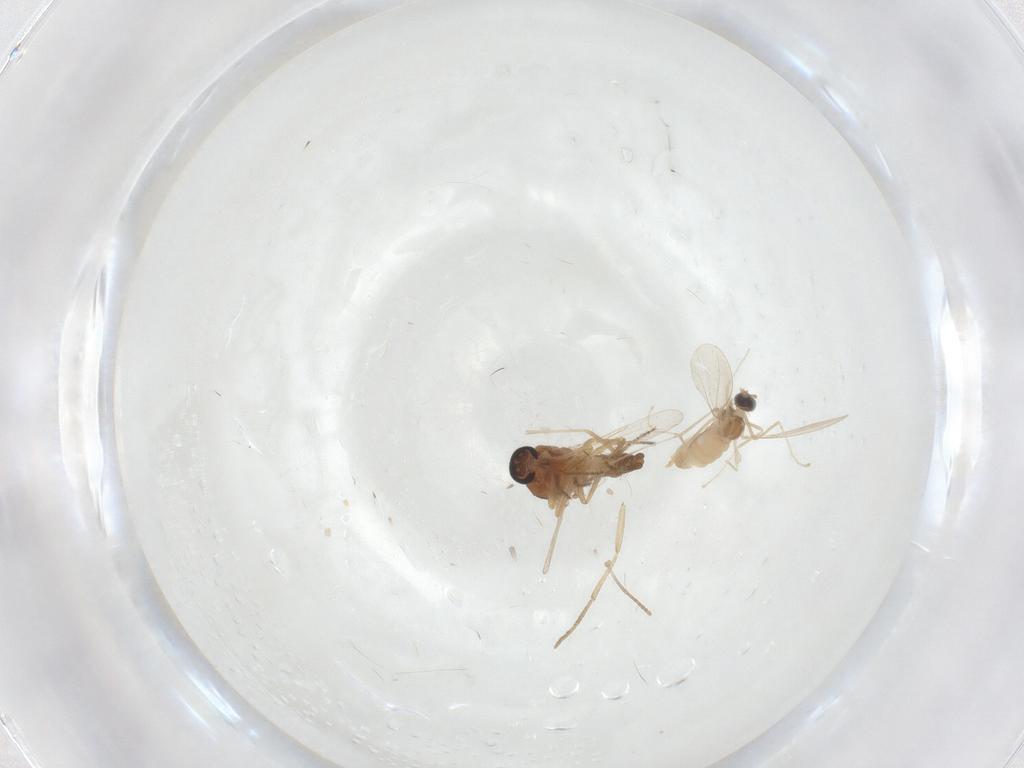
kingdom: Animalia
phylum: Arthropoda
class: Insecta
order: Diptera
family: Cecidomyiidae
